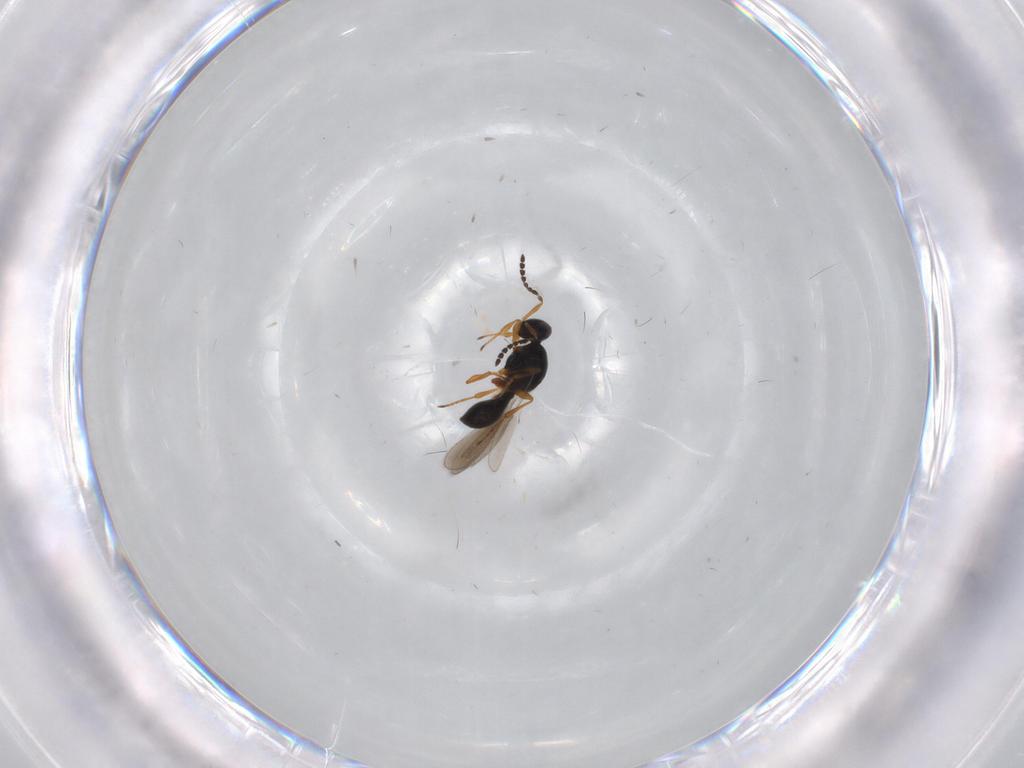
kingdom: Animalia
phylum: Arthropoda
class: Insecta
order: Hymenoptera
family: Platygastridae
